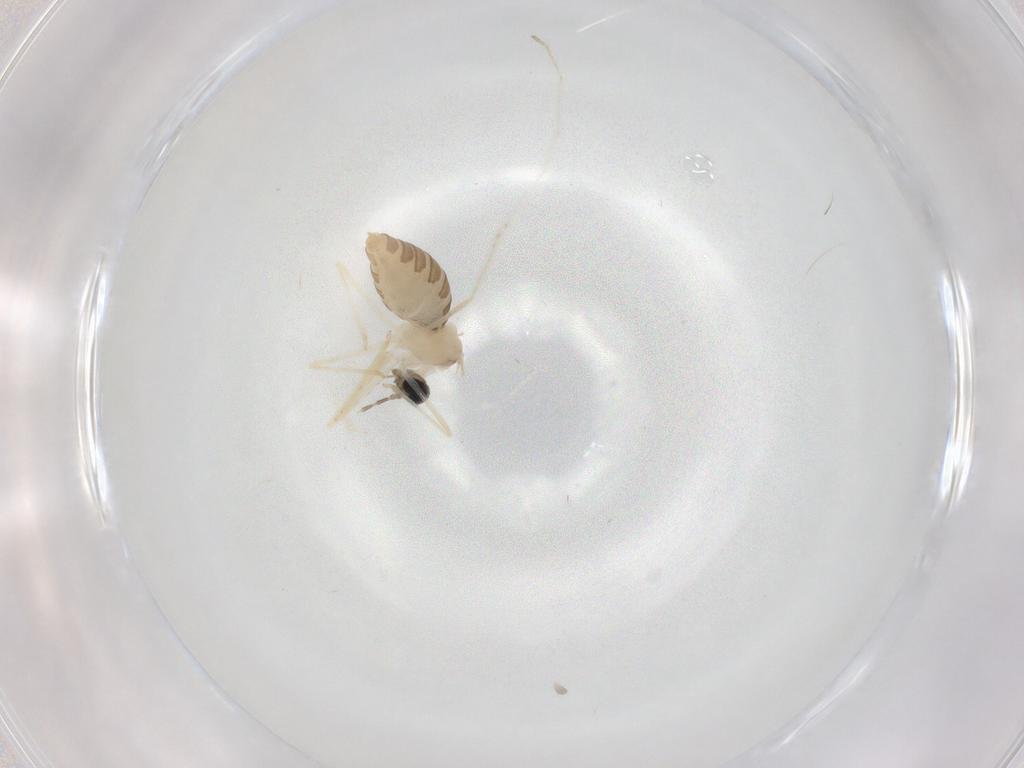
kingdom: Animalia
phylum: Arthropoda
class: Insecta
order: Diptera
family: Cecidomyiidae
